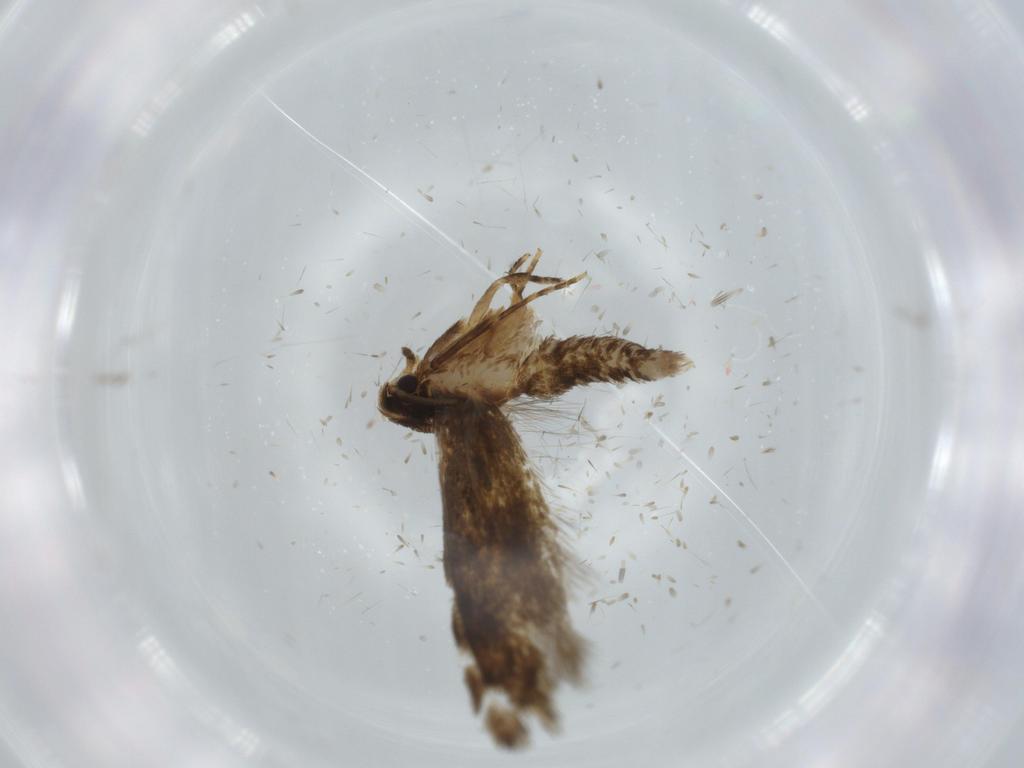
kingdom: Animalia
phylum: Arthropoda
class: Insecta
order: Lepidoptera
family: Tineidae
